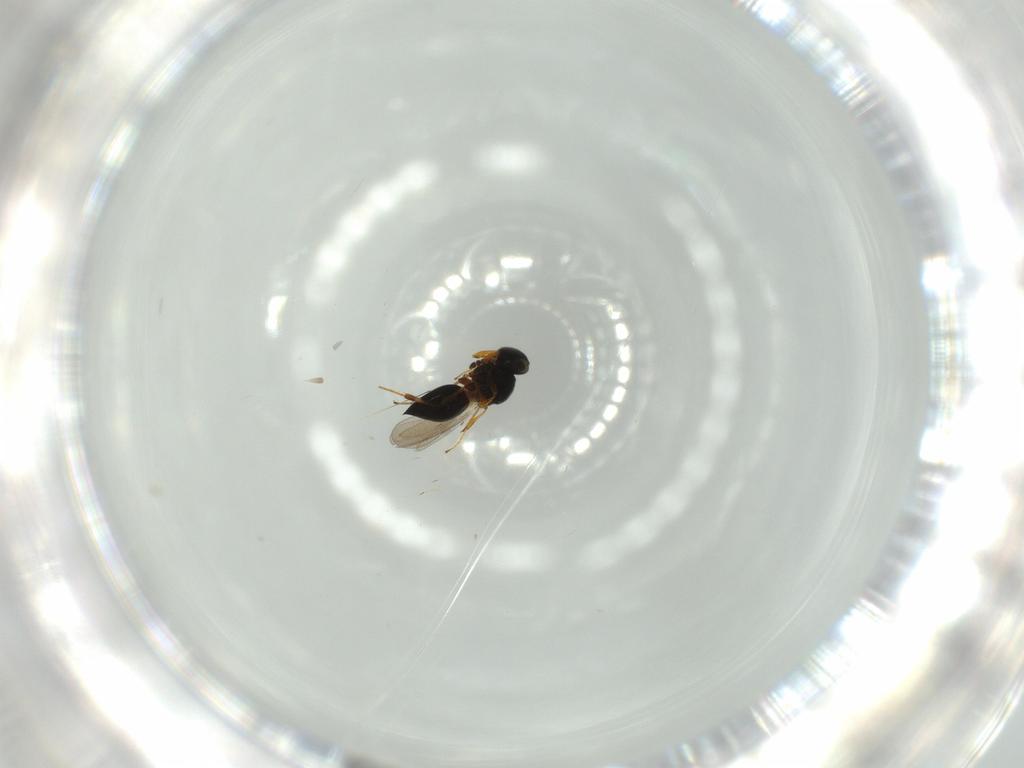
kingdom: Animalia
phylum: Arthropoda
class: Insecta
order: Hymenoptera
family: Platygastridae
